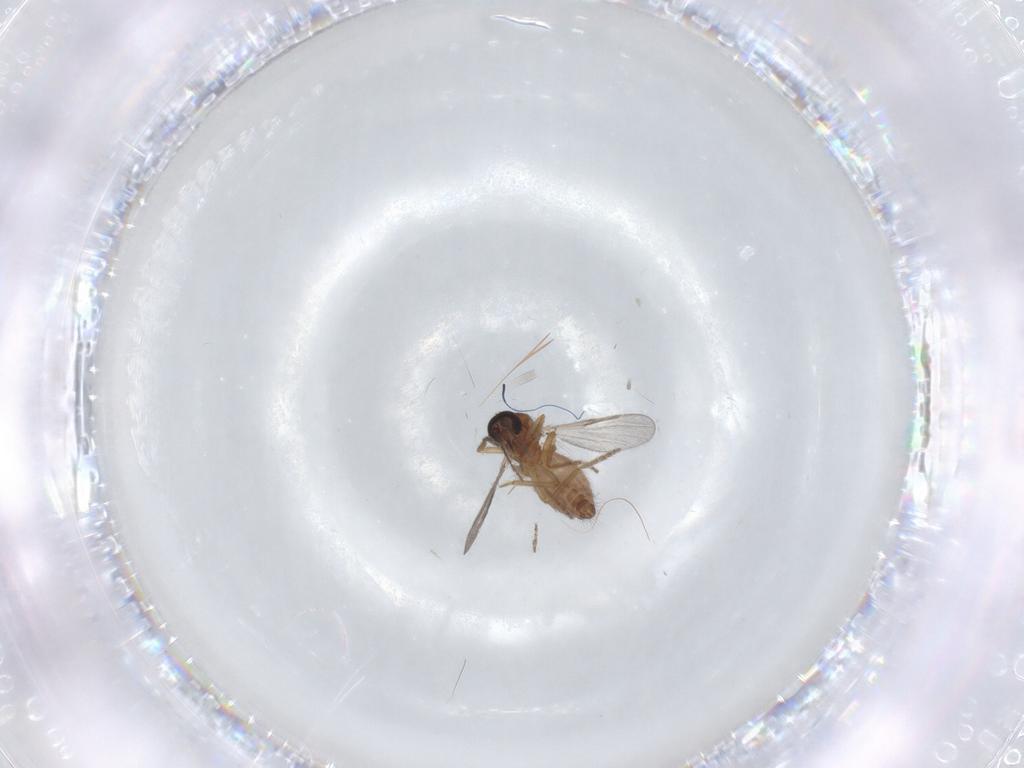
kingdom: Animalia
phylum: Arthropoda
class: Insecta
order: Diptera
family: Ceratopogonidae
